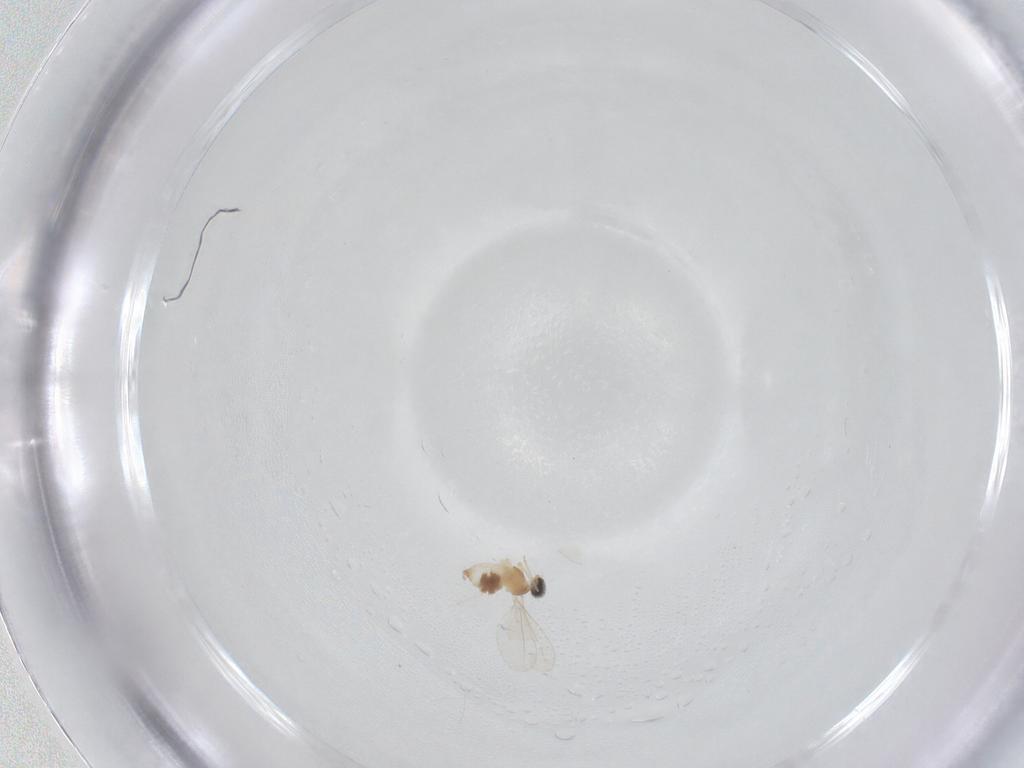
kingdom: Animalia
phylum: Arthropoda
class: Insecta
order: Diptera
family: Cecidomyiidae
